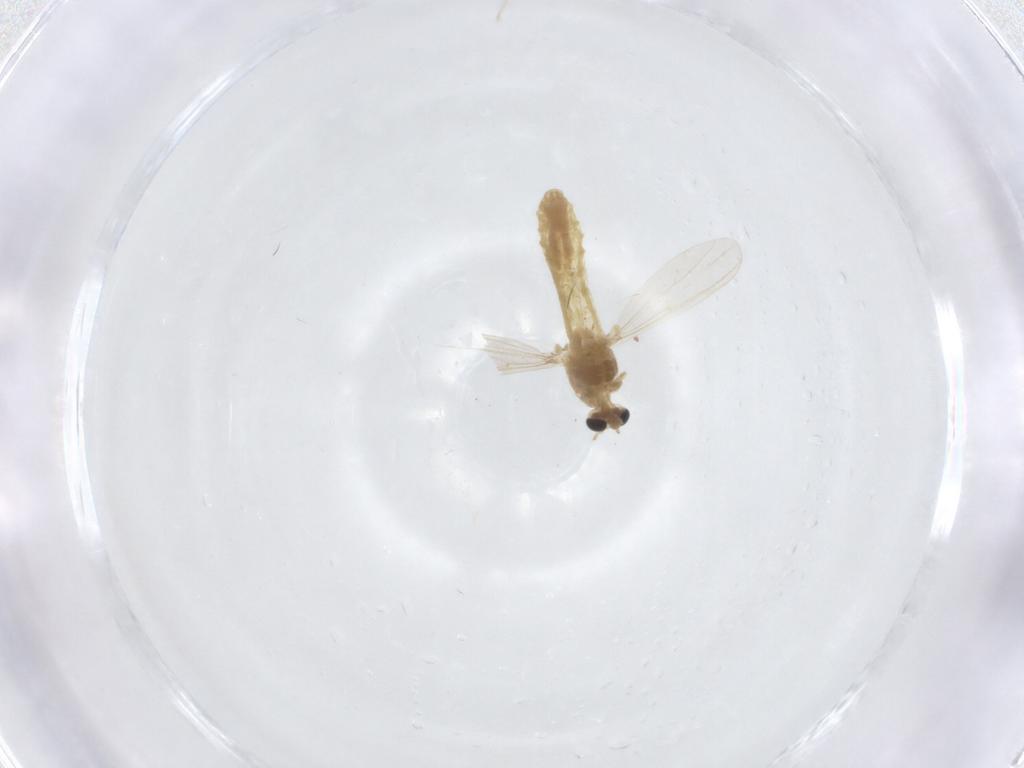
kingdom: Animalia
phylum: Arthropoda
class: Insecta
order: Diptera
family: Chironomidae
